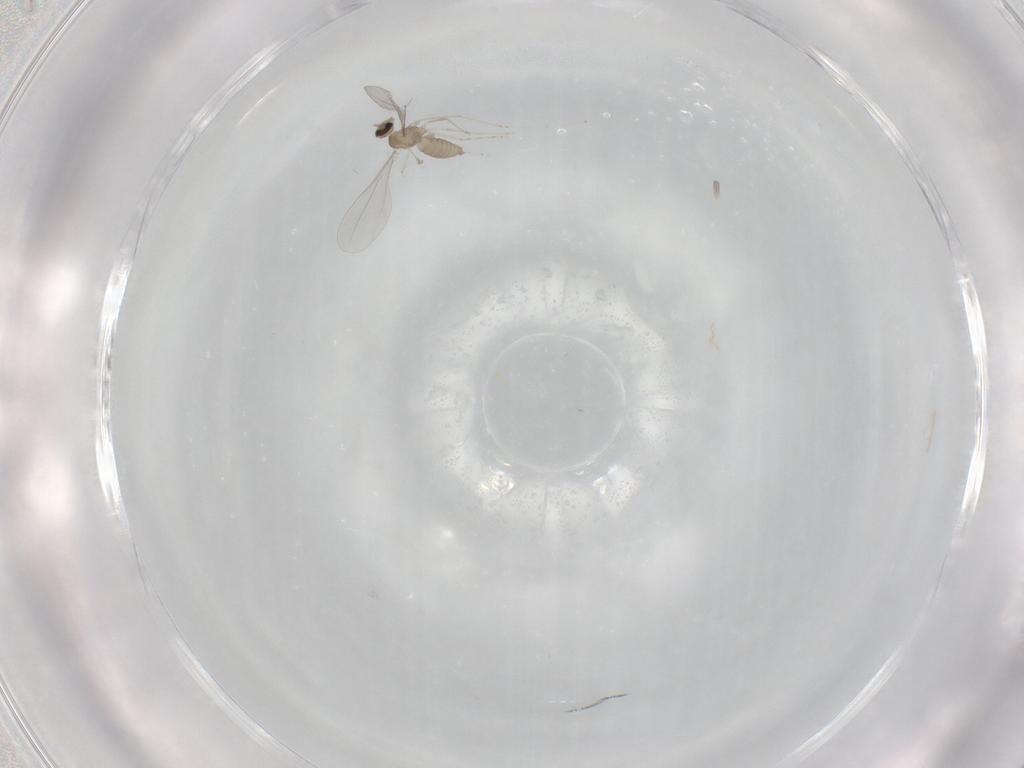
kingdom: Animalia
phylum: Arthropoda
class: Insecta
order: Diptera
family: Cecidomyiidae
